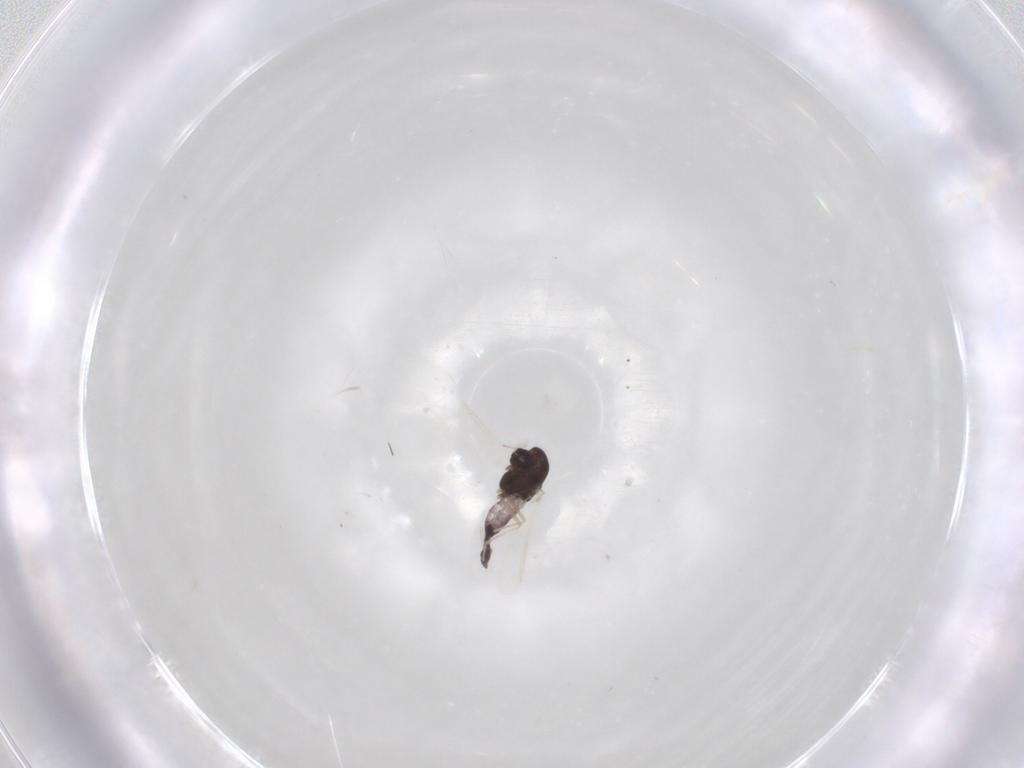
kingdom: Animalia
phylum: Arthropoda
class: Insecta
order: Diptera
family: Chironomidae
